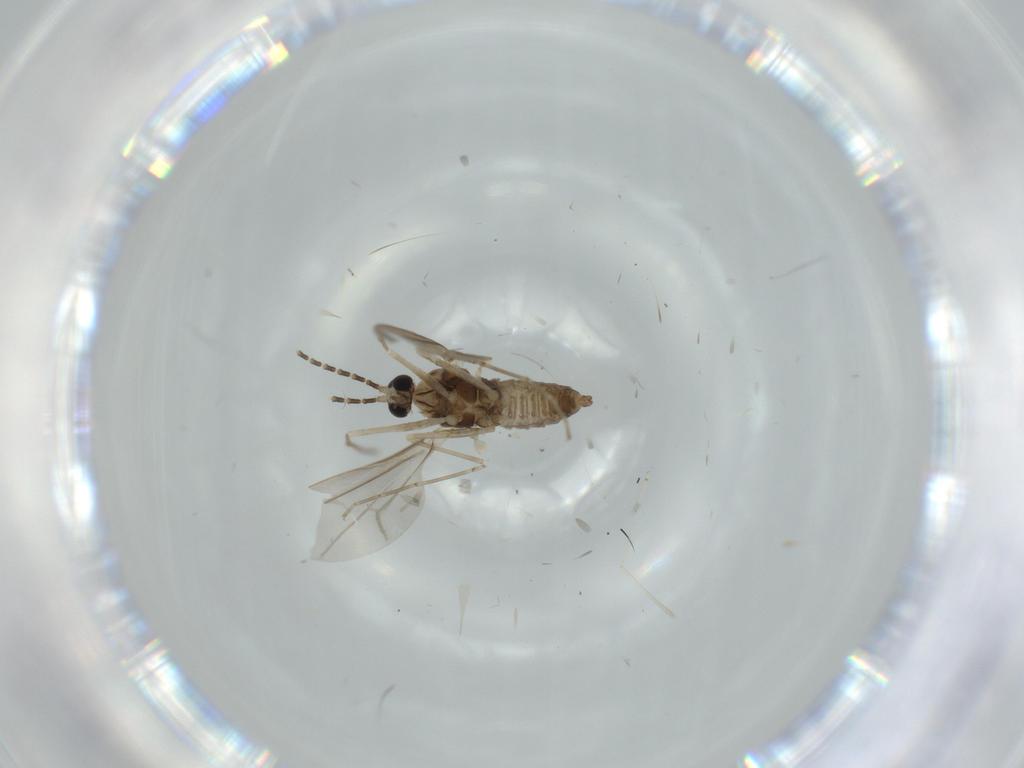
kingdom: Animalia
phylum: Arthropoda
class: Insecta
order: Diptera
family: Cecidomyiidae
